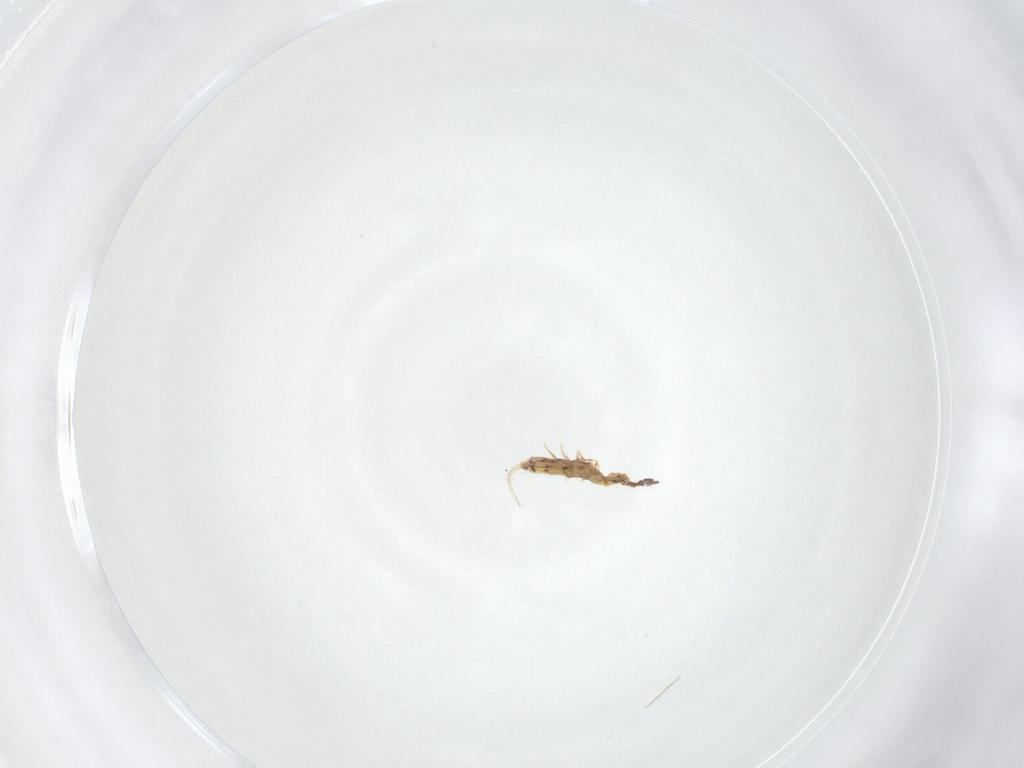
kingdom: Animalia
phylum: Arthropoda
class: Collembola
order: Entomobryomorpha
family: Entomobryidae
